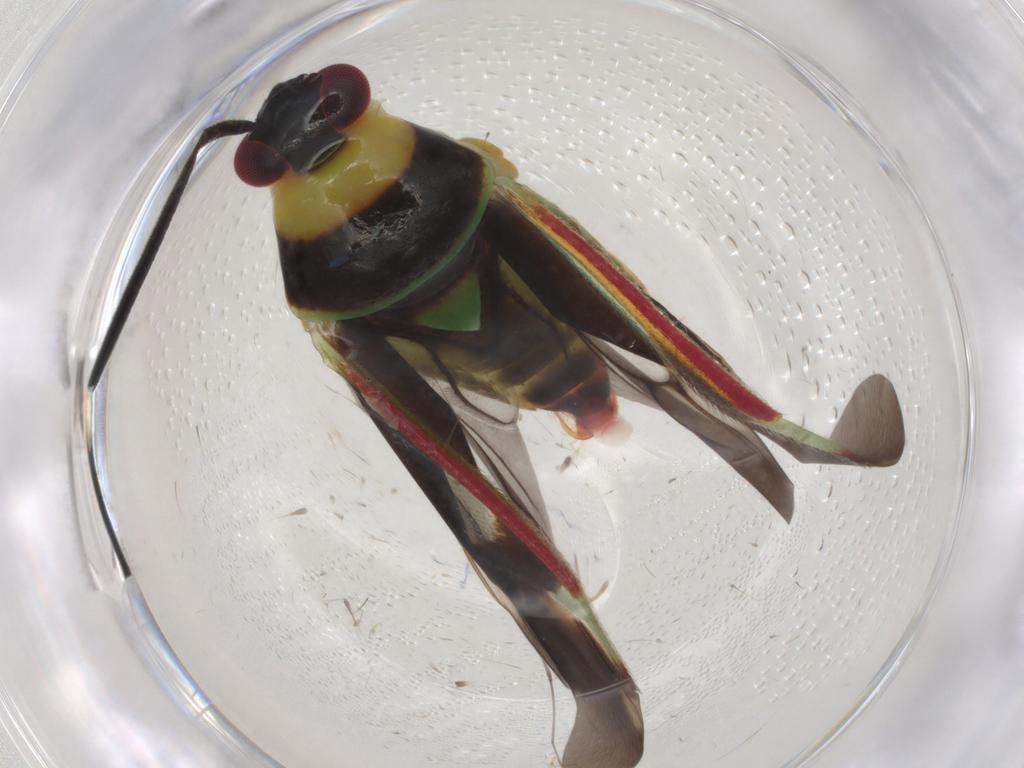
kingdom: Animalia
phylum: Arthropoda
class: Insecta
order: Hemiptera
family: Miridae
